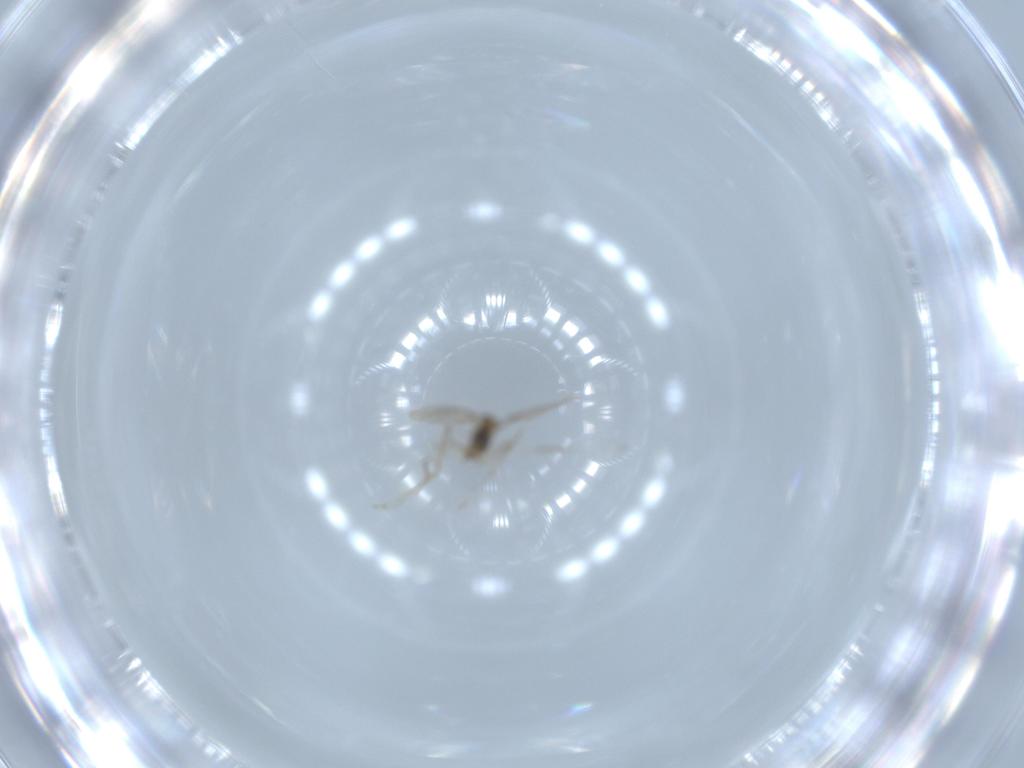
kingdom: Animalia
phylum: Arthropoda
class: Insecta
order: Diptera
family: Cecidomyiidae
